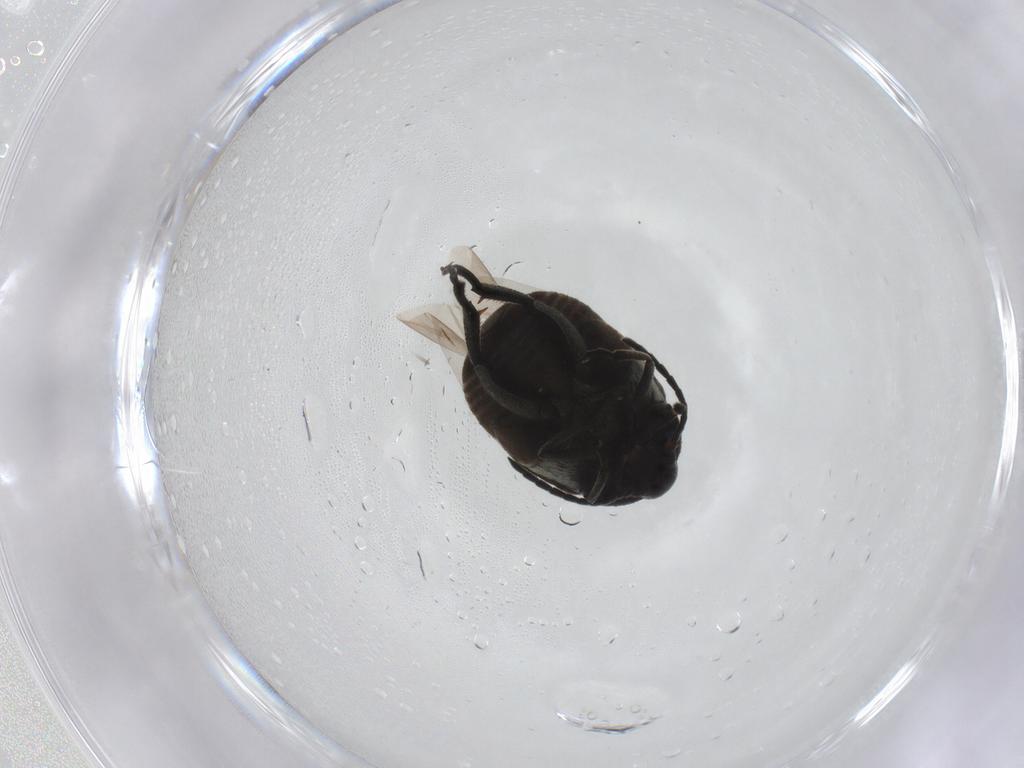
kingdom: Animalia
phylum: Arthropoda
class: Insecta
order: Coleoptera
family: Chrysomelidae
